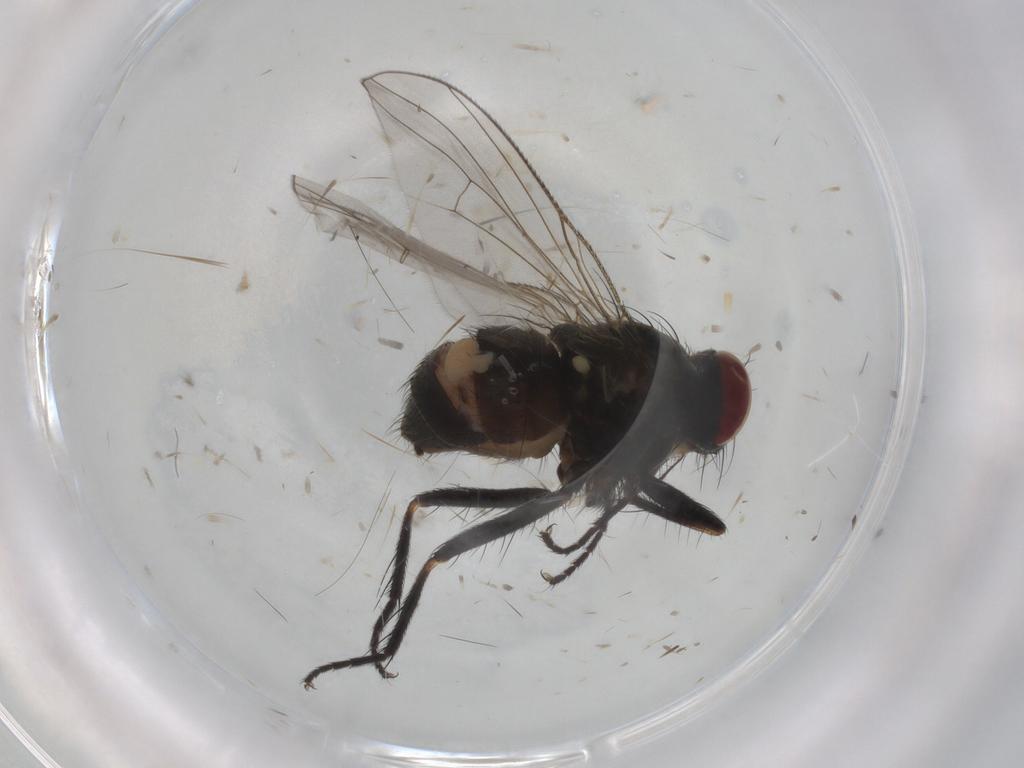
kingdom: Animalia
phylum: Arthropoda
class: Insecta
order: Diptera
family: Muscidae
